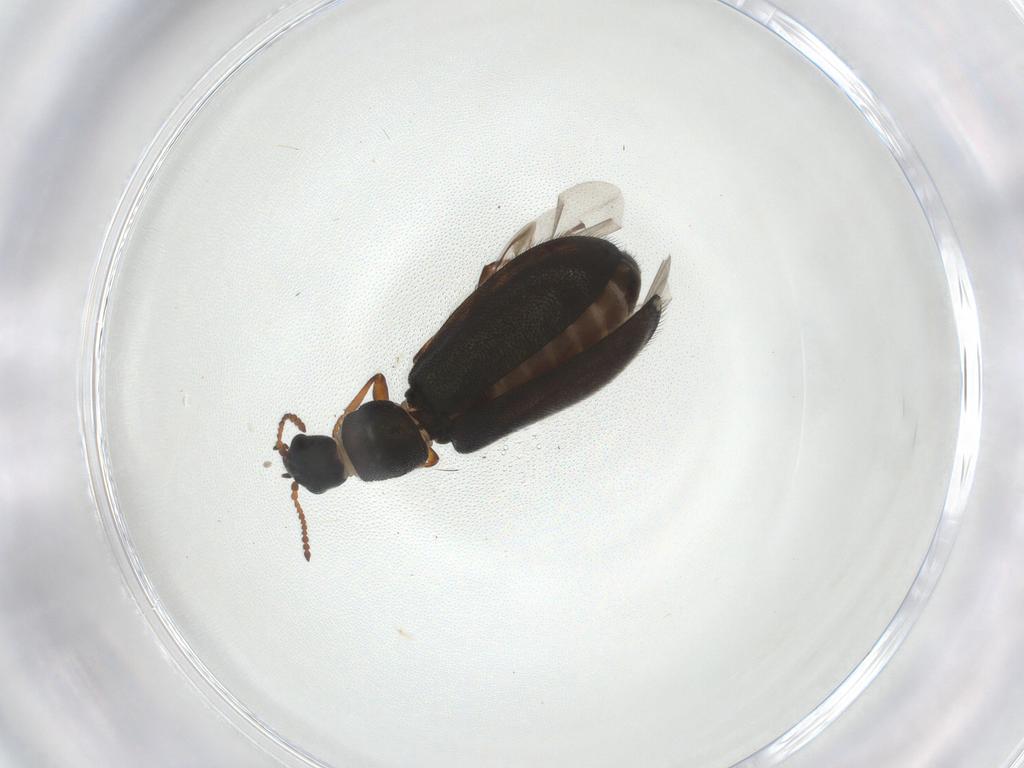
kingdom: Animalia
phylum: Arthropoda
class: Insecta
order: Coleoptera
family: Melyridae
